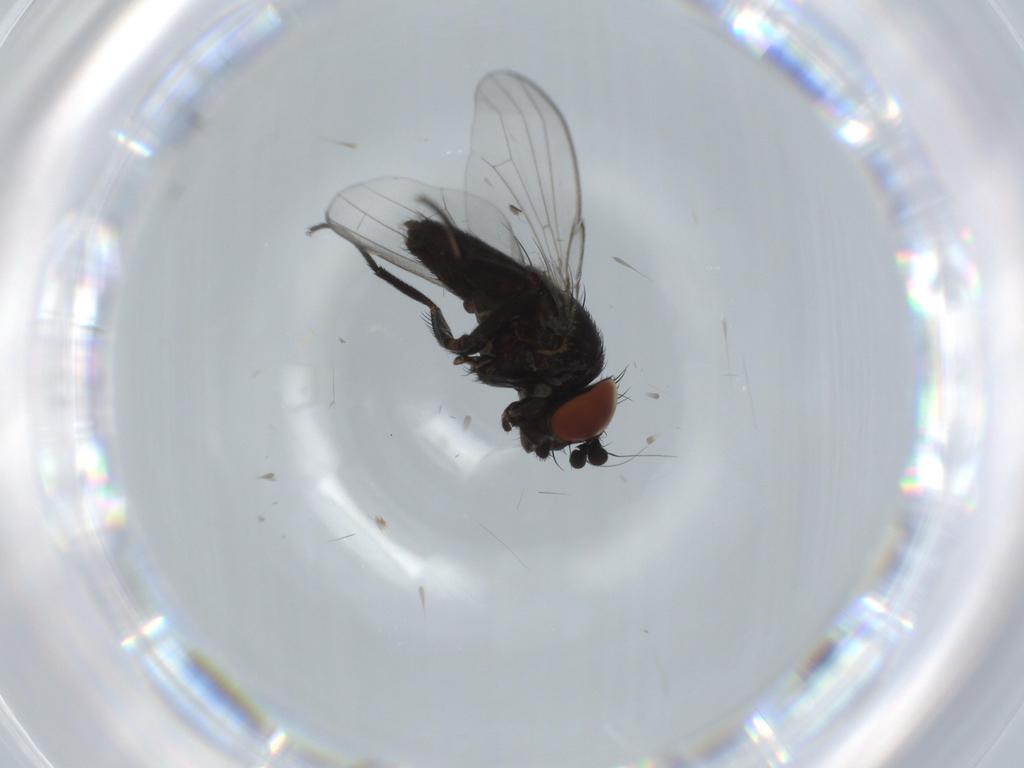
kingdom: Animalia
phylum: Arthropoda
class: Insecta
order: Diptera
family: Milichiidae
